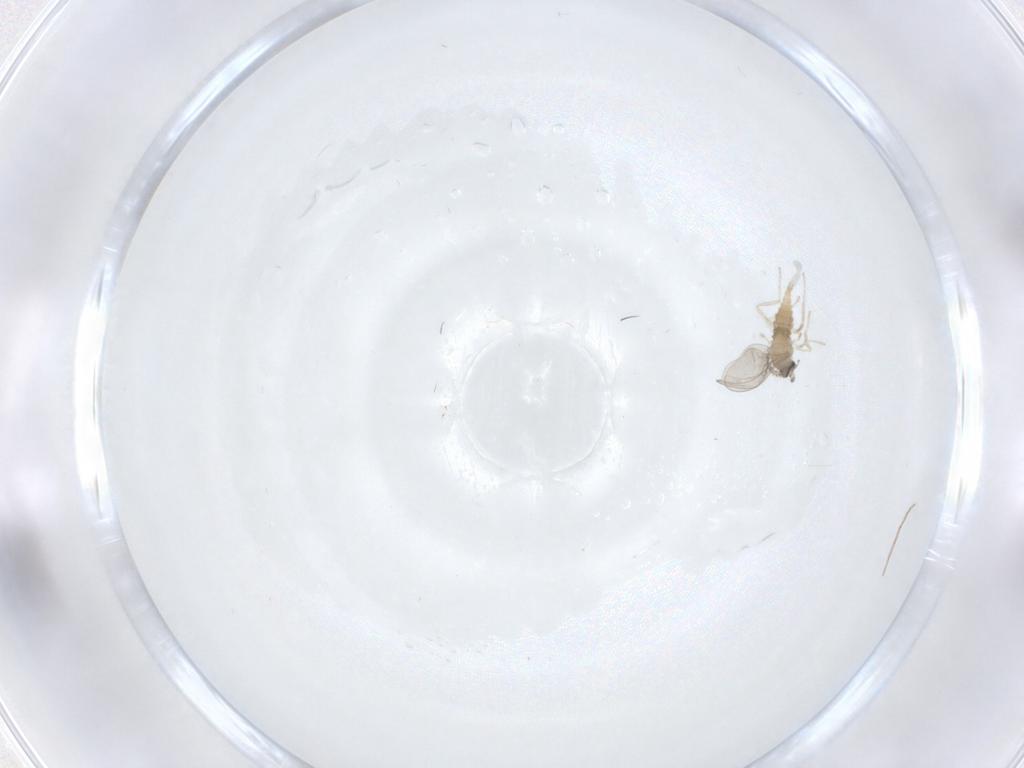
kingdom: Animalia
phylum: Arthropoda
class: Insecta
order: Diptera
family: Cecidomyiidae
